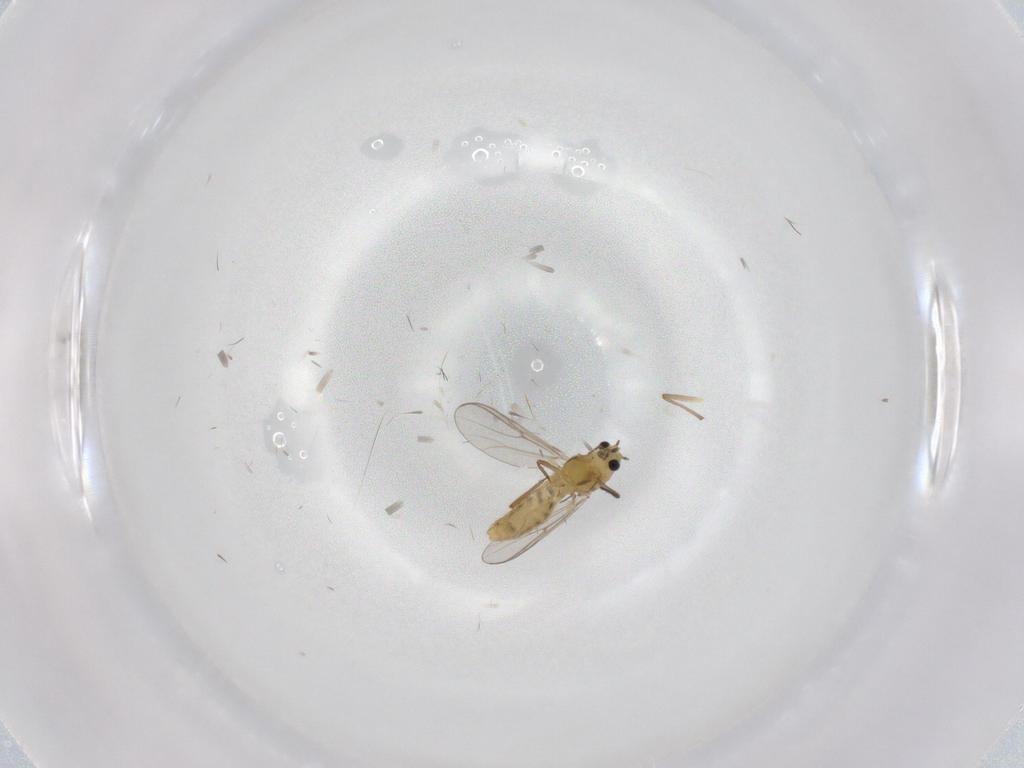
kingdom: Animalia
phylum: Arthropoda
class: Insecta
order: Diptera
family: Chironomidae
